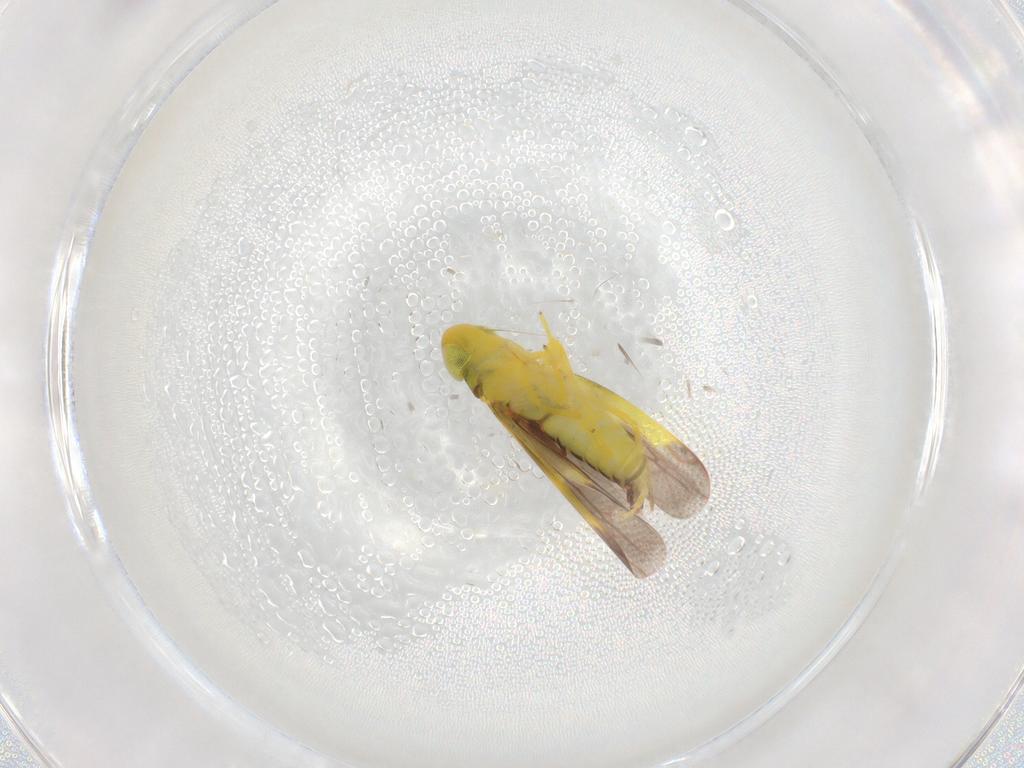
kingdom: Animalia
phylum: Arthropoda
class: Insecta
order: Hemiptera
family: Cicadellidae
